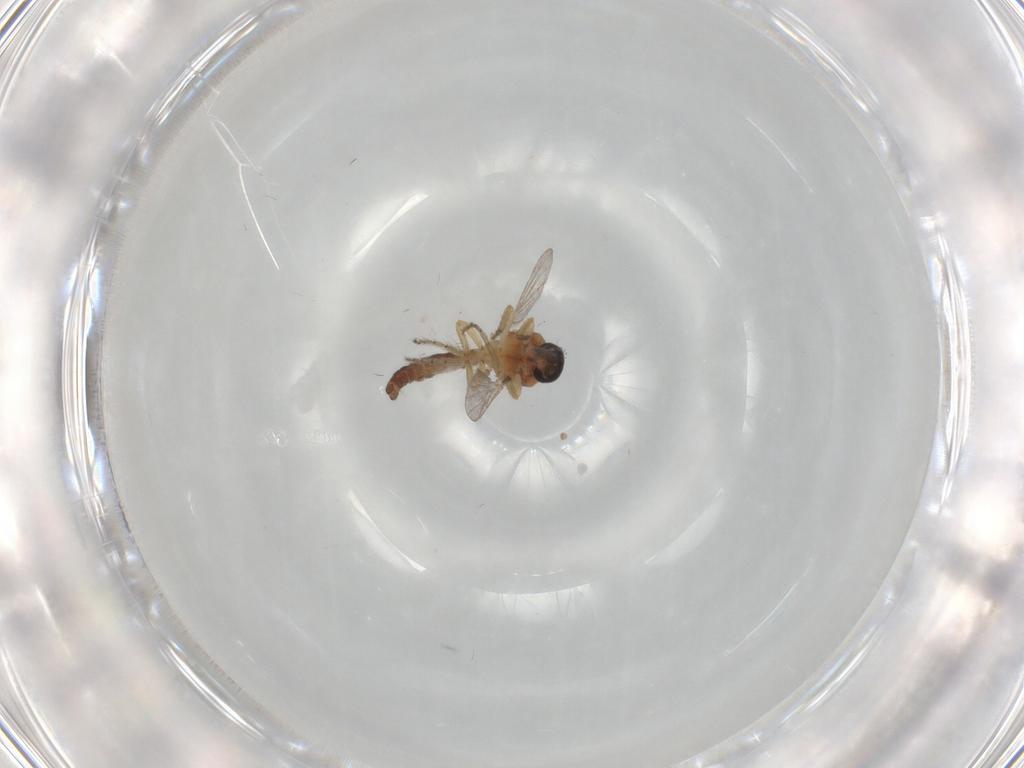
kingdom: Animalia
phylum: Arthropoda
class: Insecta
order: Diptera
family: Ceratopogonidae
